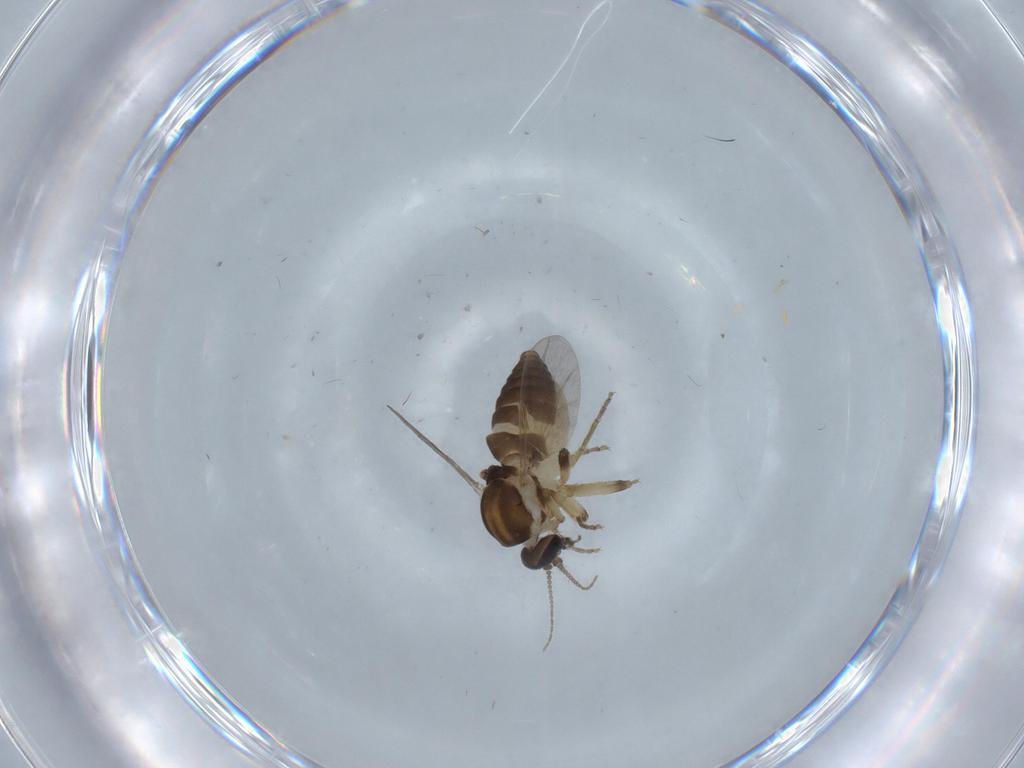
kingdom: Animalia
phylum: Arthropoda
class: Insecta
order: Diptera
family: Ceratopogonidae
